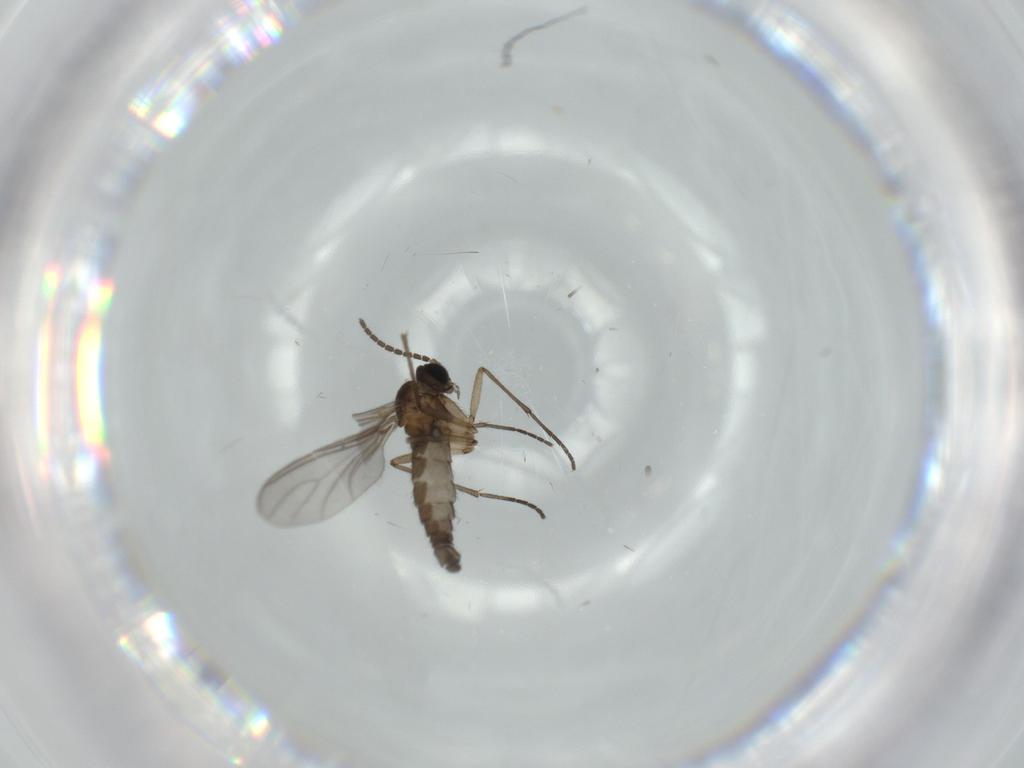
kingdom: Animalia
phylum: Arthropoda
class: Insecta
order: Diptera
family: Sciaridae
